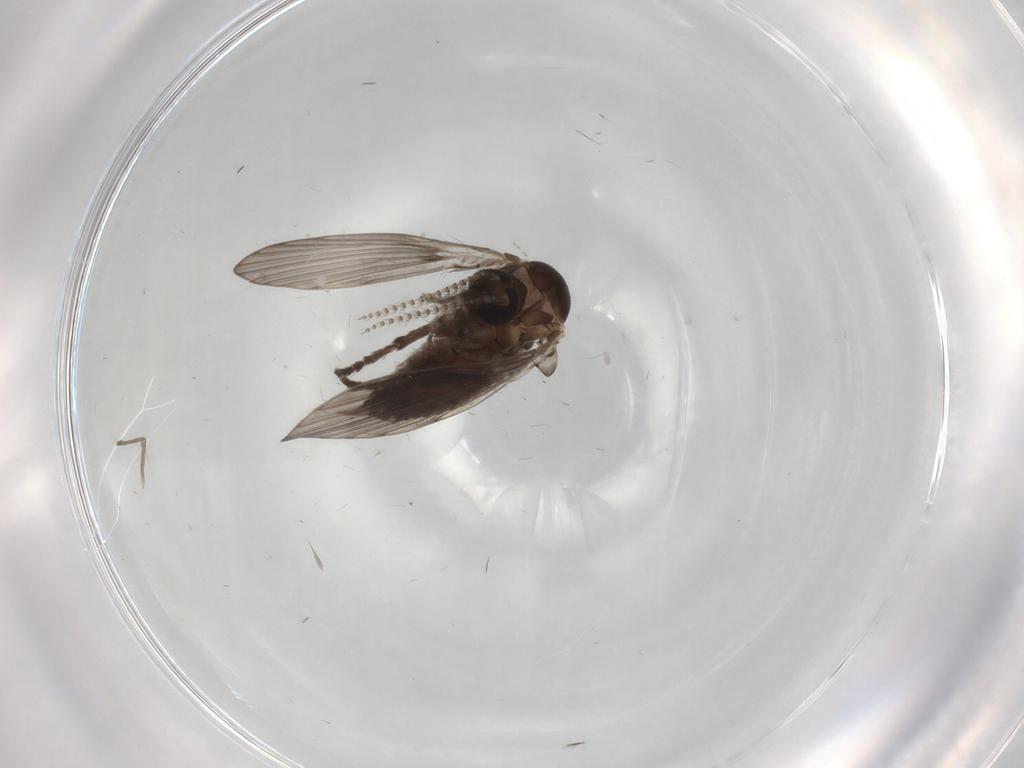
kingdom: Animalia
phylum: Arthropoda
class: Insecta
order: Diptera
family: Psychodidae
